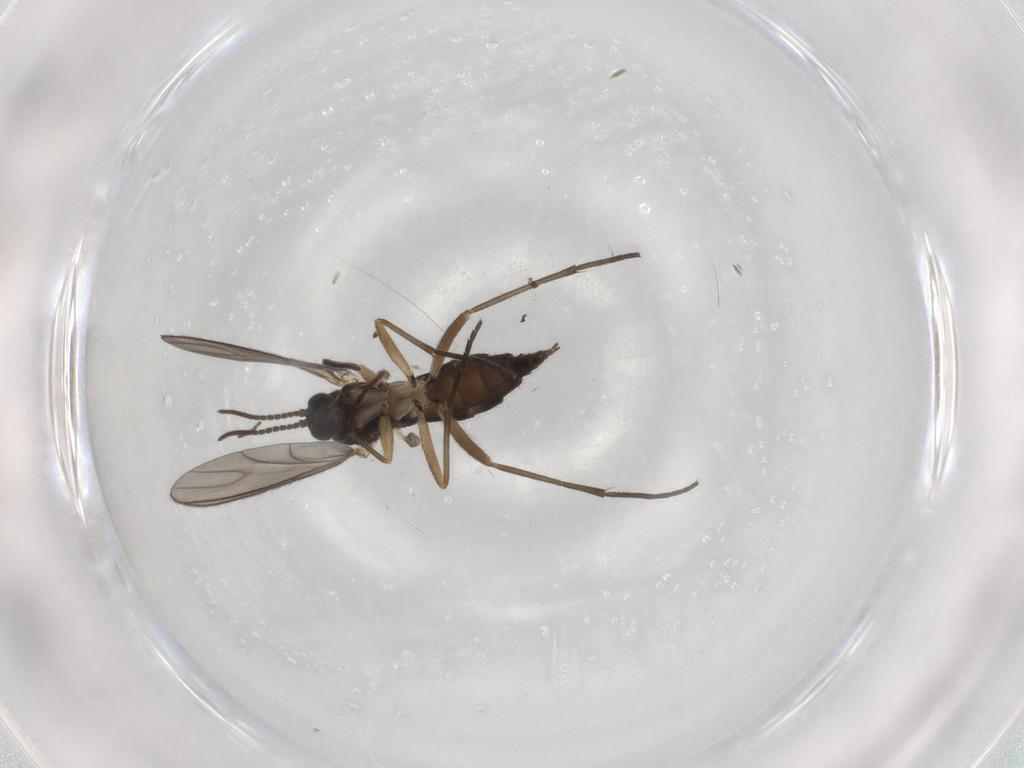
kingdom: Animalia
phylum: Arthropoda
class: Insecta
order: Diptera
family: Sciaridae
